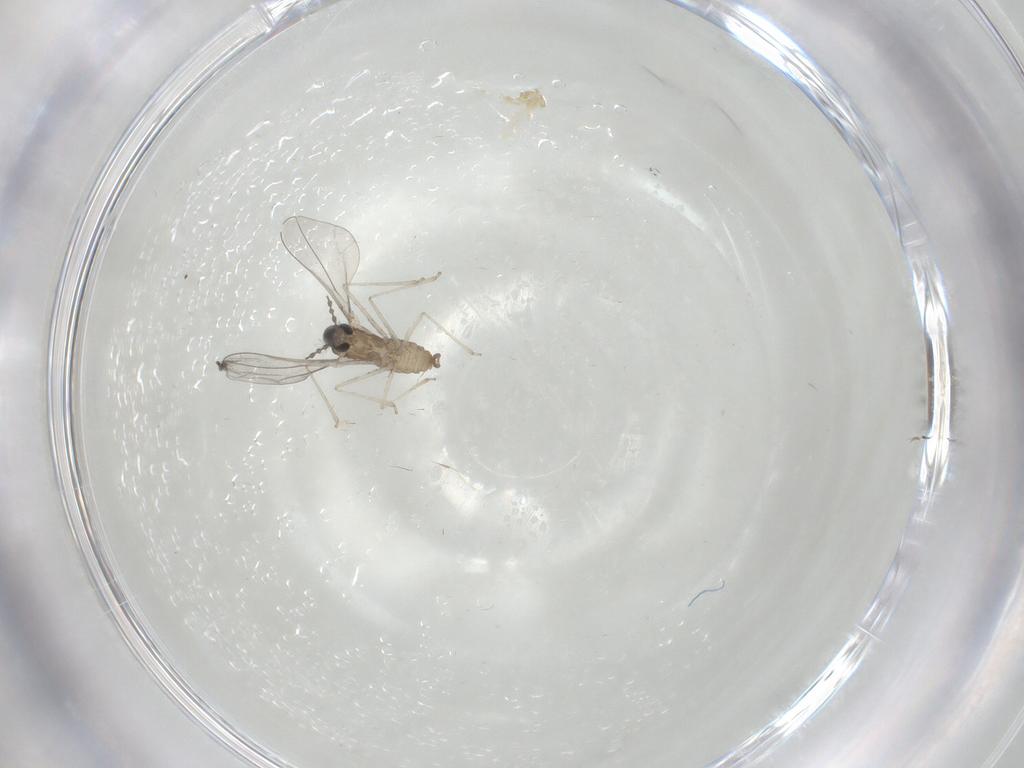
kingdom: Animalia
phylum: Arthropoda
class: Insecta
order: Diptera
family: Cecidomyiidae
